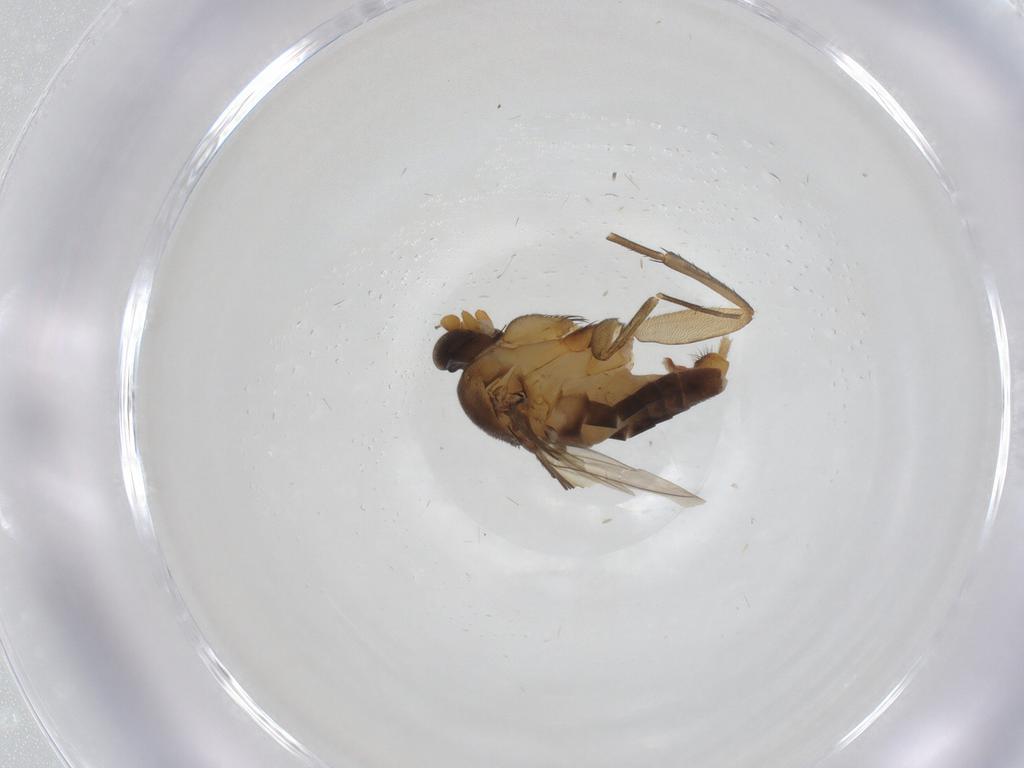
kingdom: Animalia
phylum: Arthropoda
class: Insecta
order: Diptera
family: Phoridae
